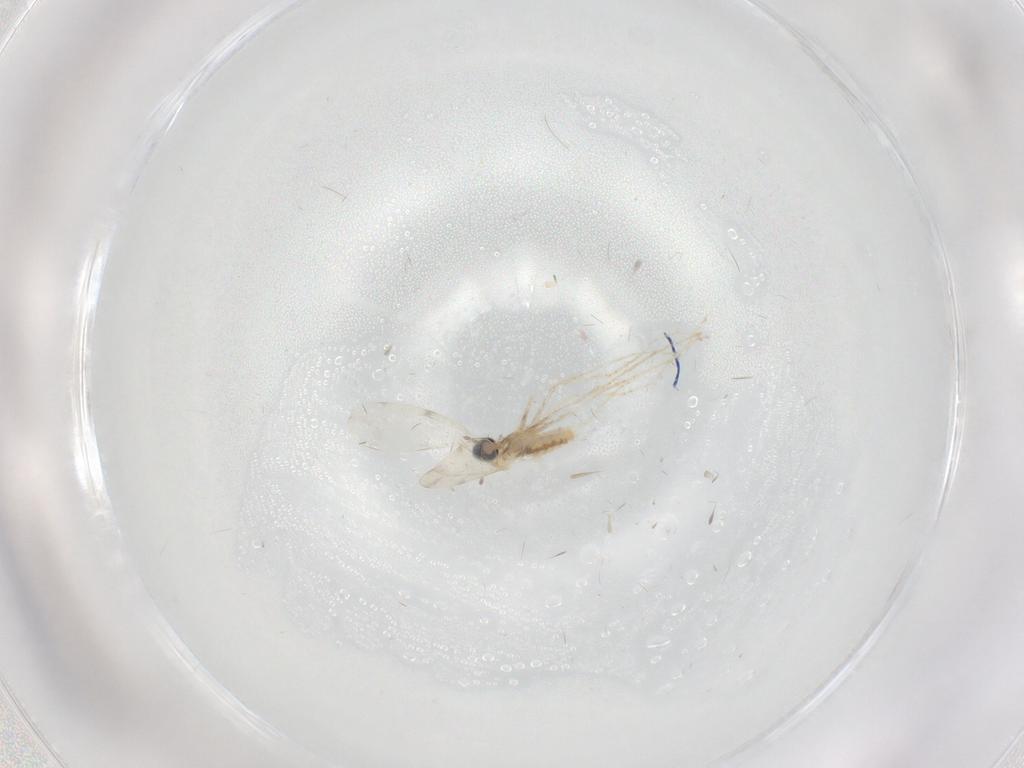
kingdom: Animalia
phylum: Arthropoda
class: Insecta
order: Diptera
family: Cecidomyiidae
